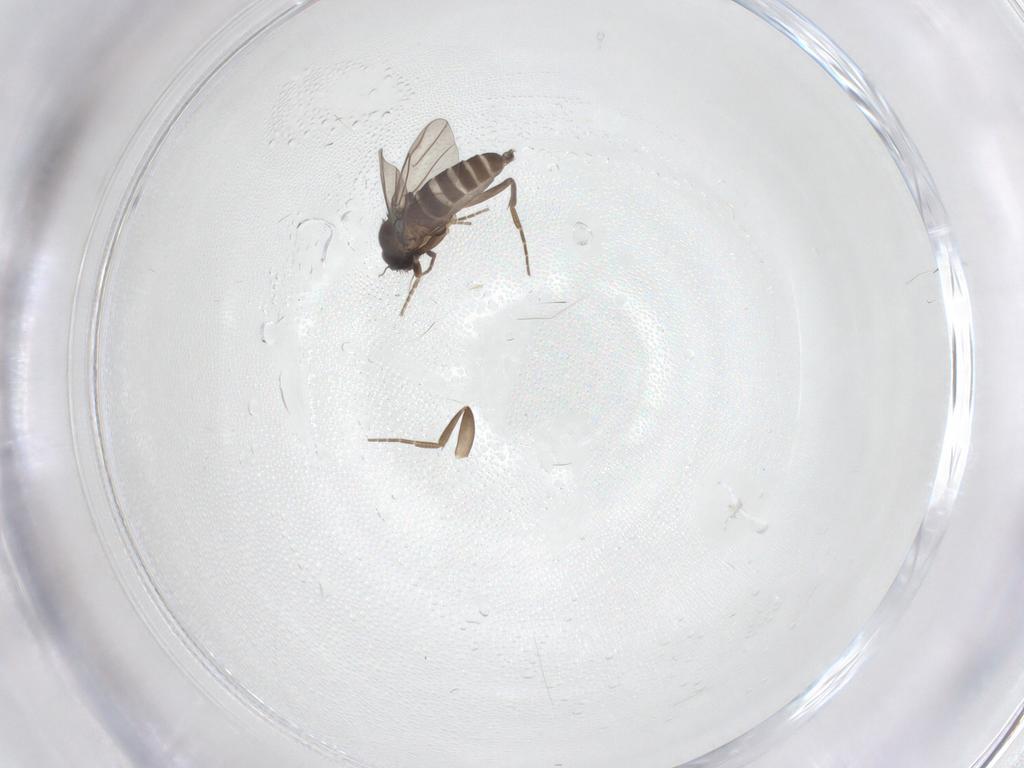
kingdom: Animalia
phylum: Arthropoda
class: Insecta
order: Diptera
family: Phoridae
